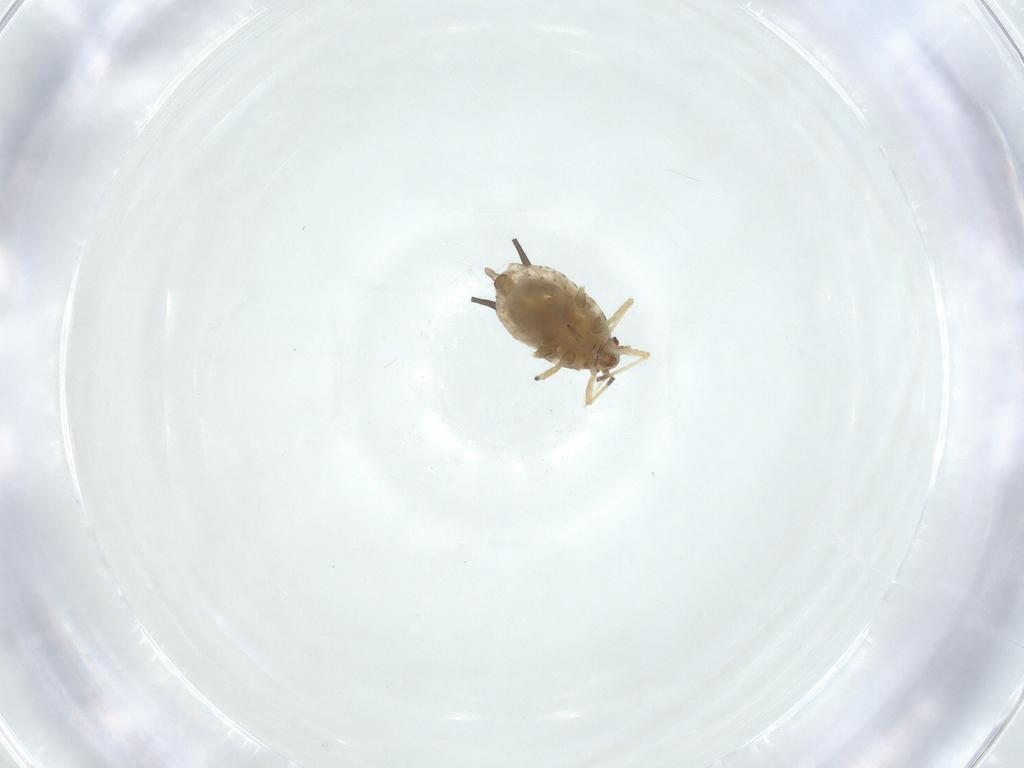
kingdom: Animalia
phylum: Arthropoda
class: Insecta
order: Hemiptera
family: Aphididae
